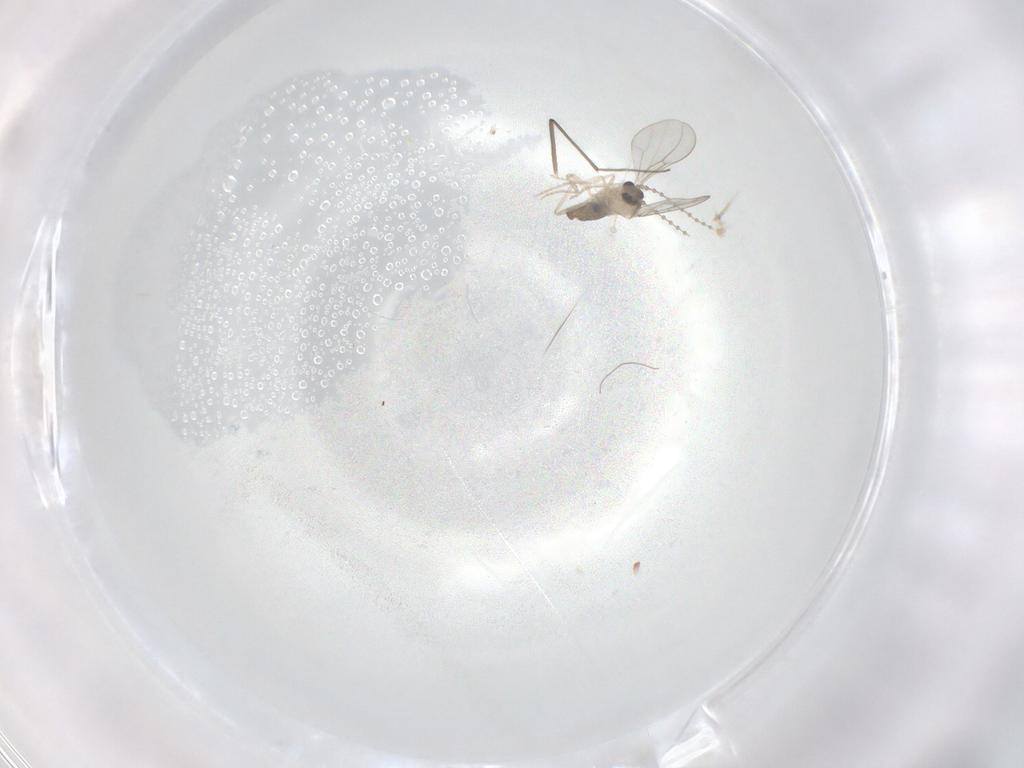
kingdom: Animalia
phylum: Arthropoda
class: Insecta
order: Diptera
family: Cecidomyiidae
